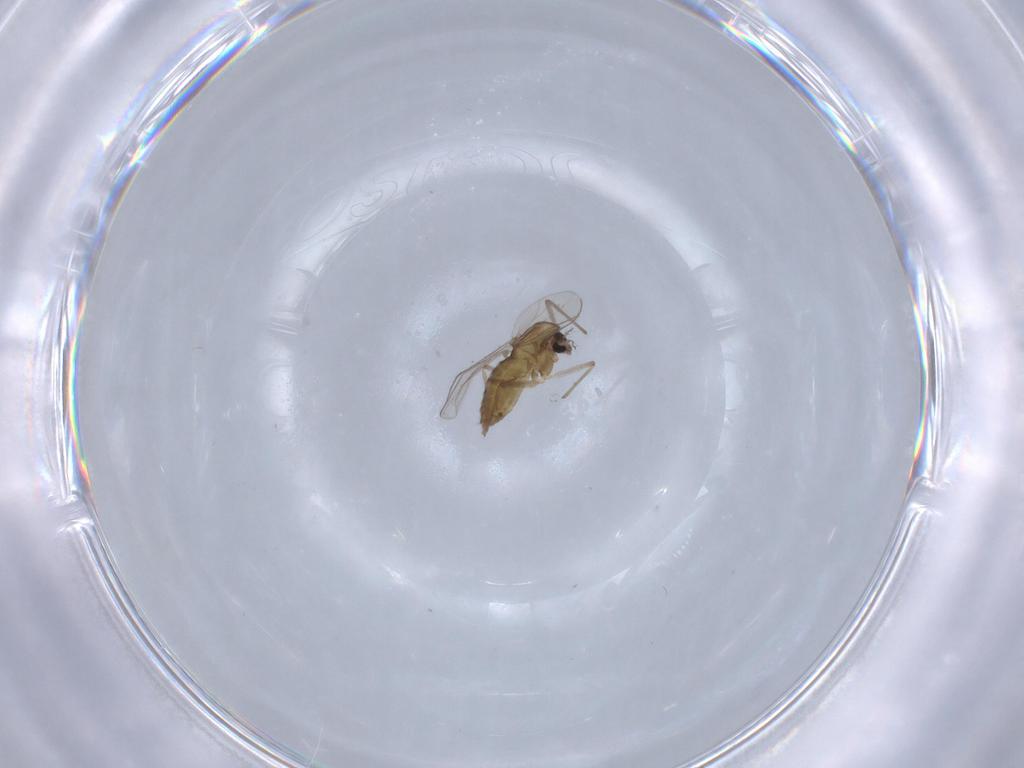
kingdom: Animalia
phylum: Arthropoda
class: Insecta
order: Diptera
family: Chironomidae
